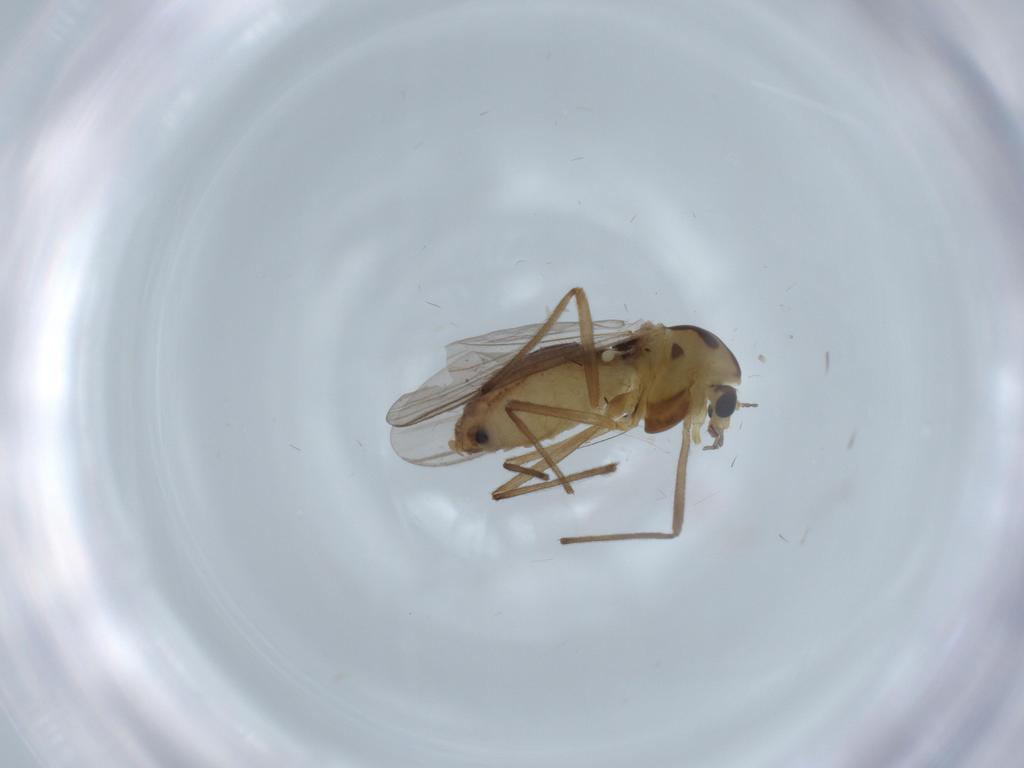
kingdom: Animalia
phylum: Arthropoda
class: Insecta
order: Diptera
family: Chironomidae
